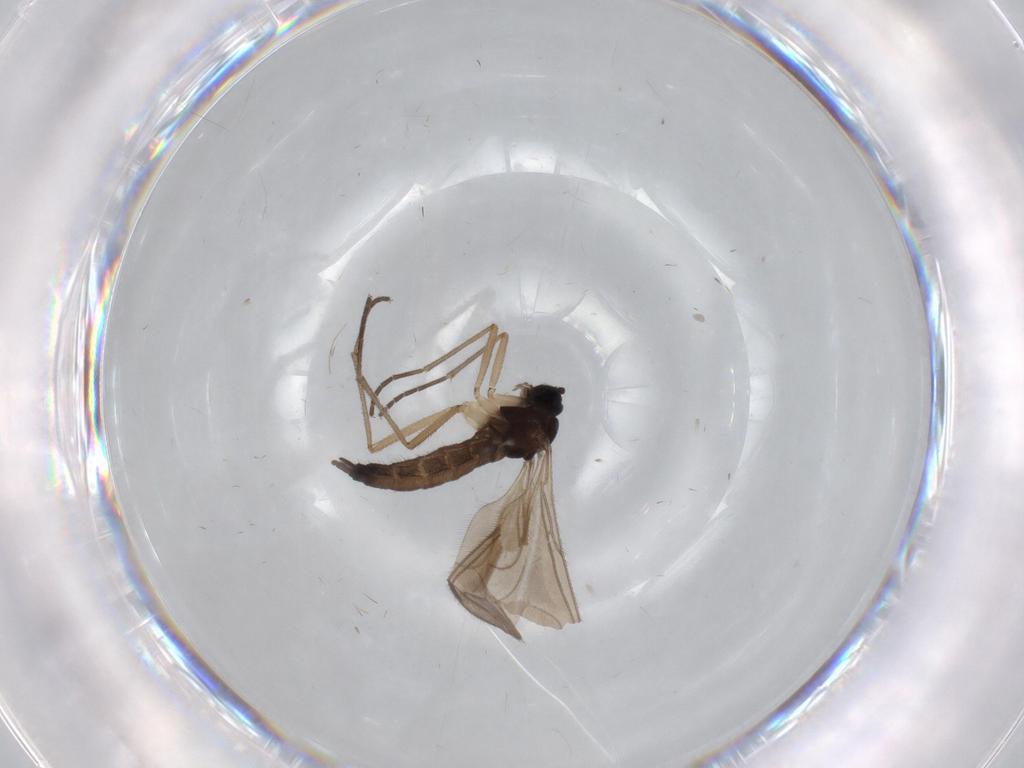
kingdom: Animalia
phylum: Arthropoda
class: Insecta
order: Diptera
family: Sciaridae
